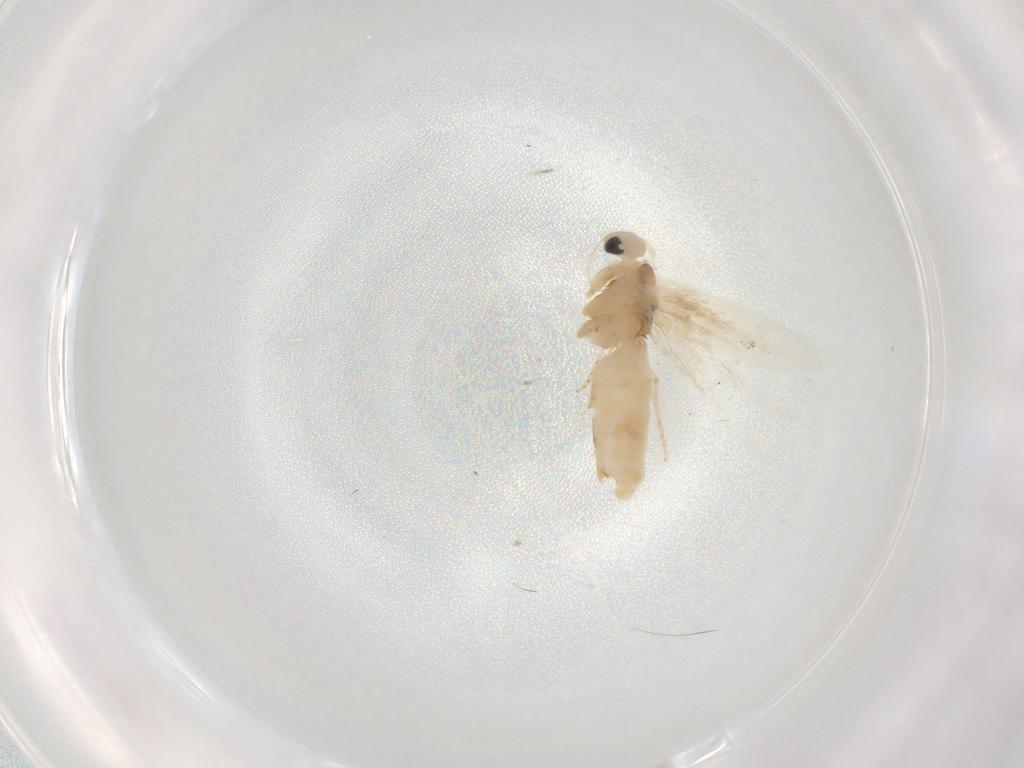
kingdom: Animalia
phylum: Arthropoda
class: Insecta
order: Lepidoptera
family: Bucculatricidae
